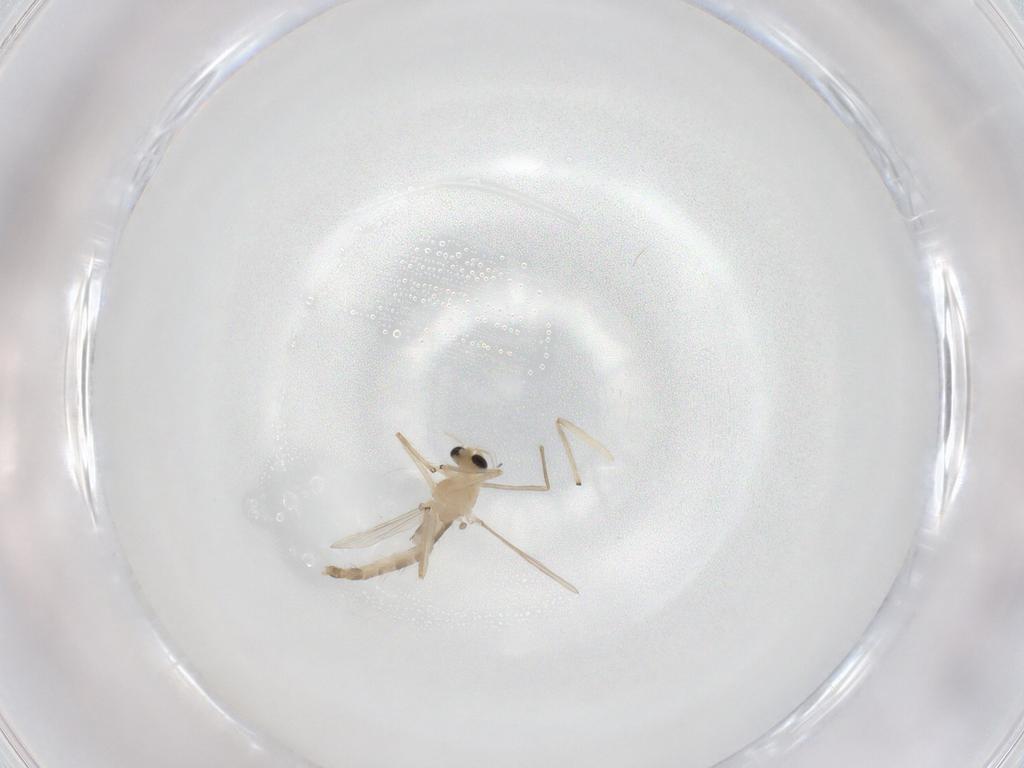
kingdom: Animalia
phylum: Arthropoda
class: Insecta
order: Diptera
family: Chironomidae
